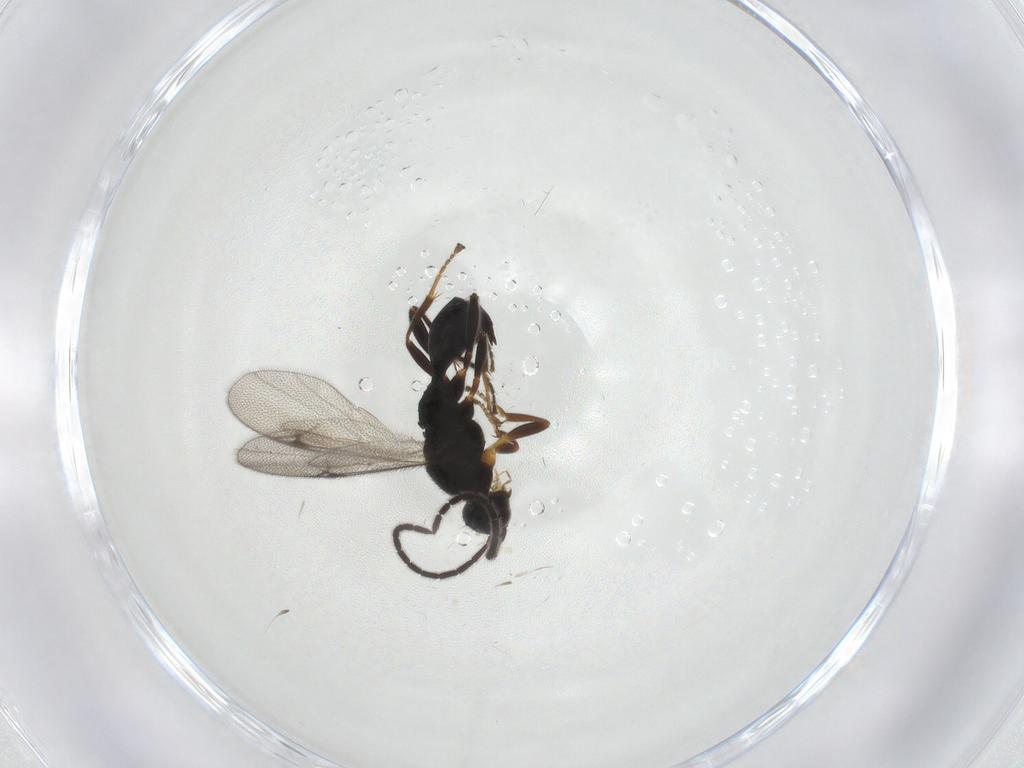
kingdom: Animalia
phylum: Arthropoda
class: Insecta
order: Hymenoptera
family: Proctotrupidae
